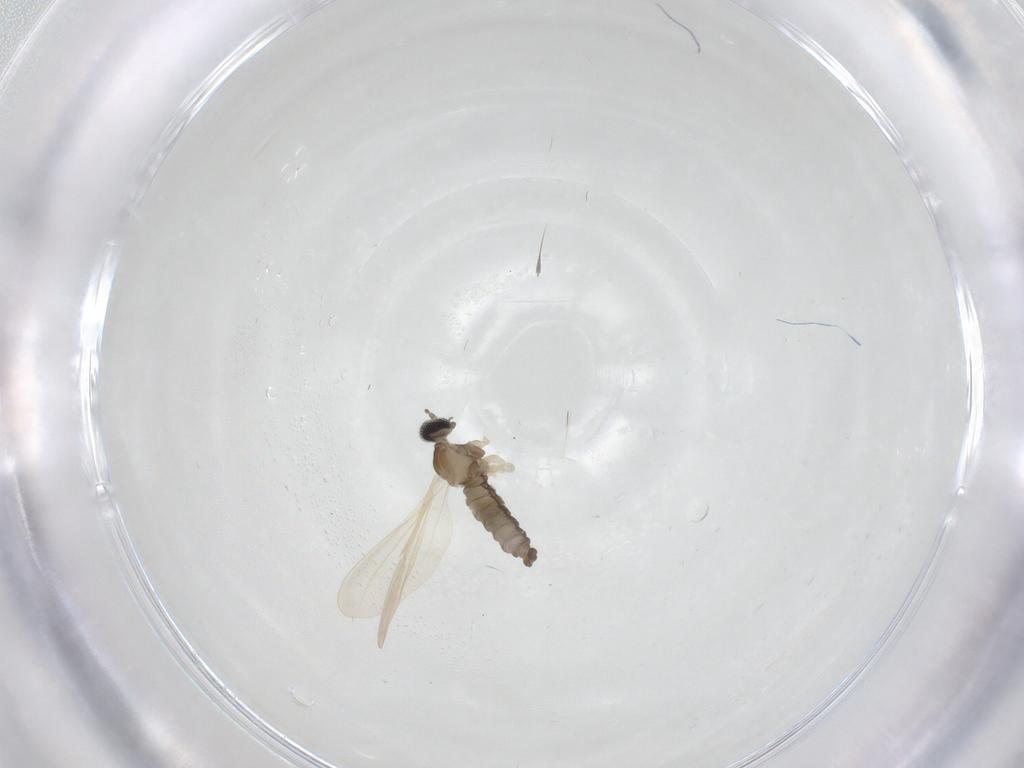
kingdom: Animalia
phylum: Arthropoda
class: Insecta
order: Diptera
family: Cecidomyiidae
